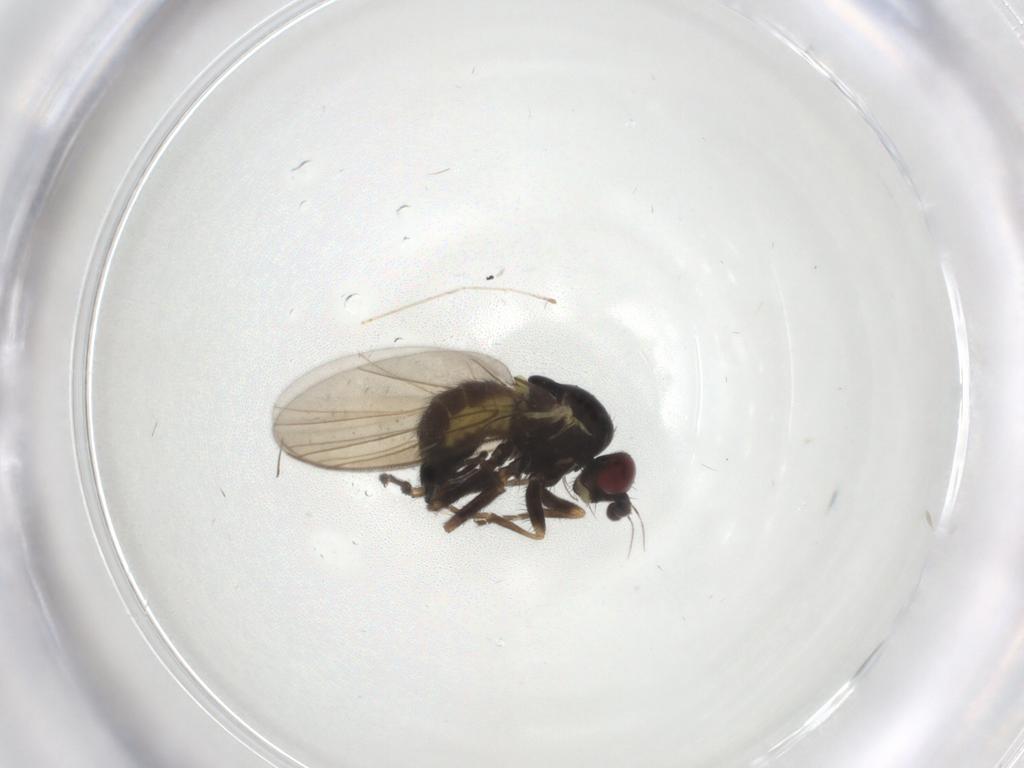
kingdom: Animalia
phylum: Arthropoda
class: Insecta
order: Diptera
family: Agromyzidae
